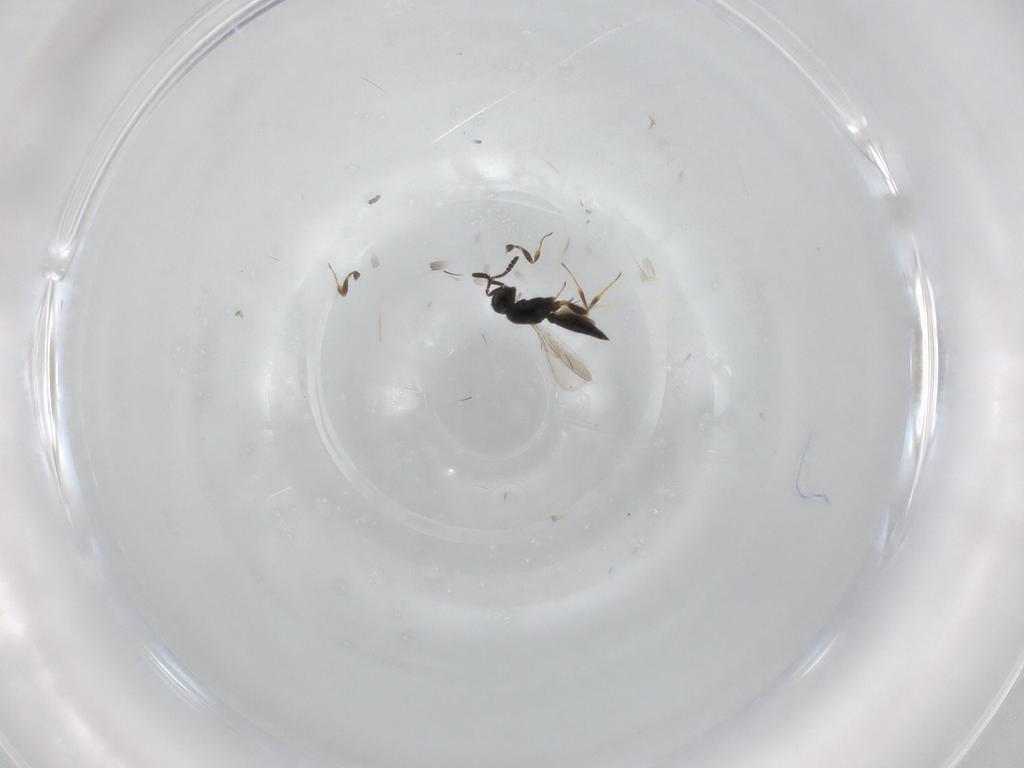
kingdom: Animalia
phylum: Arthropoda
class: Insecta
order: Hymenoptera
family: Scelionidae
